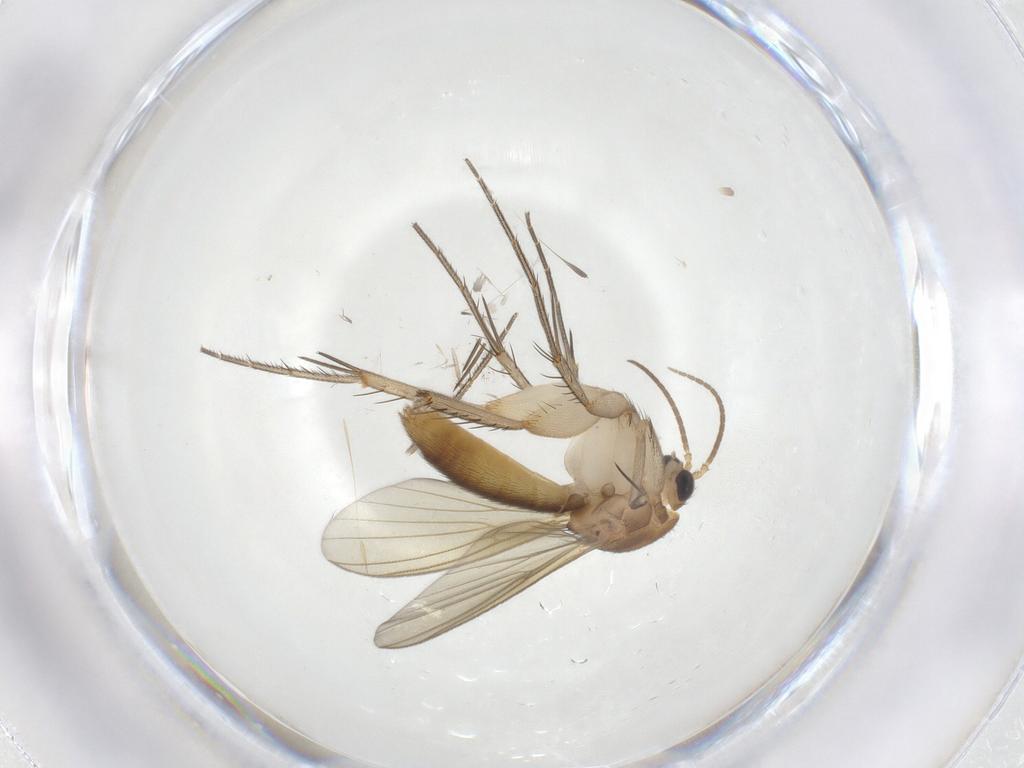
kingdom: Animalia
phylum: Arthropoda
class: Insecta
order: Diptera
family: Mycetophilidae
